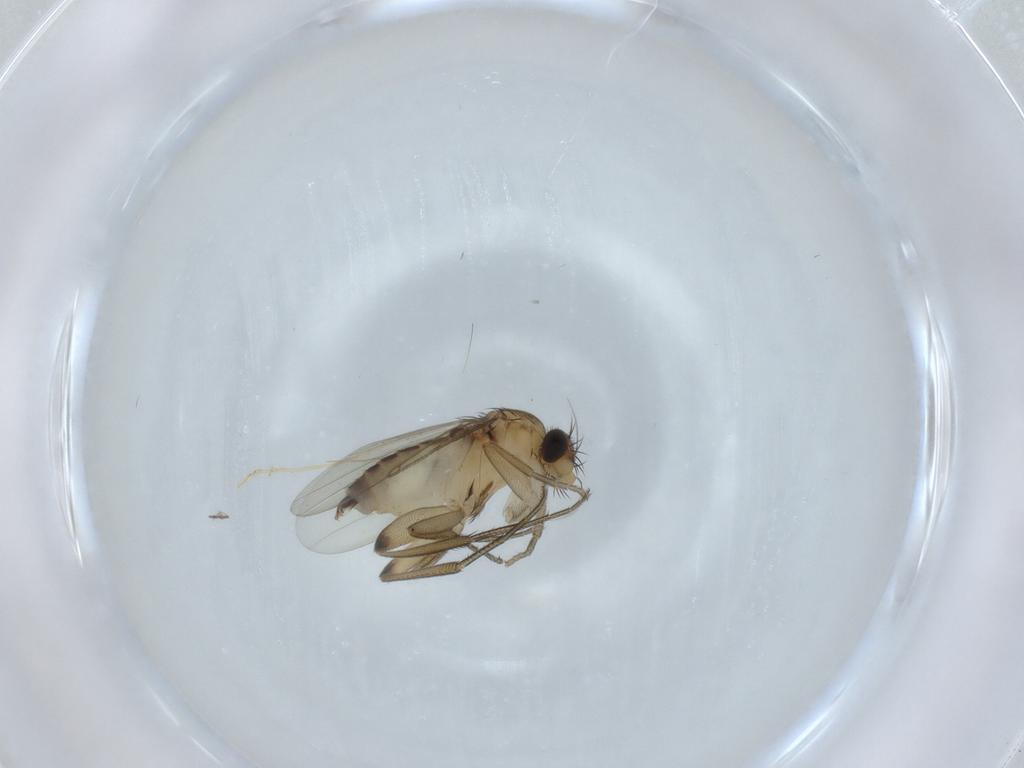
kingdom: Animalia
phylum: Arthropoda
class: Insecta
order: Diptera
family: Phoridae
